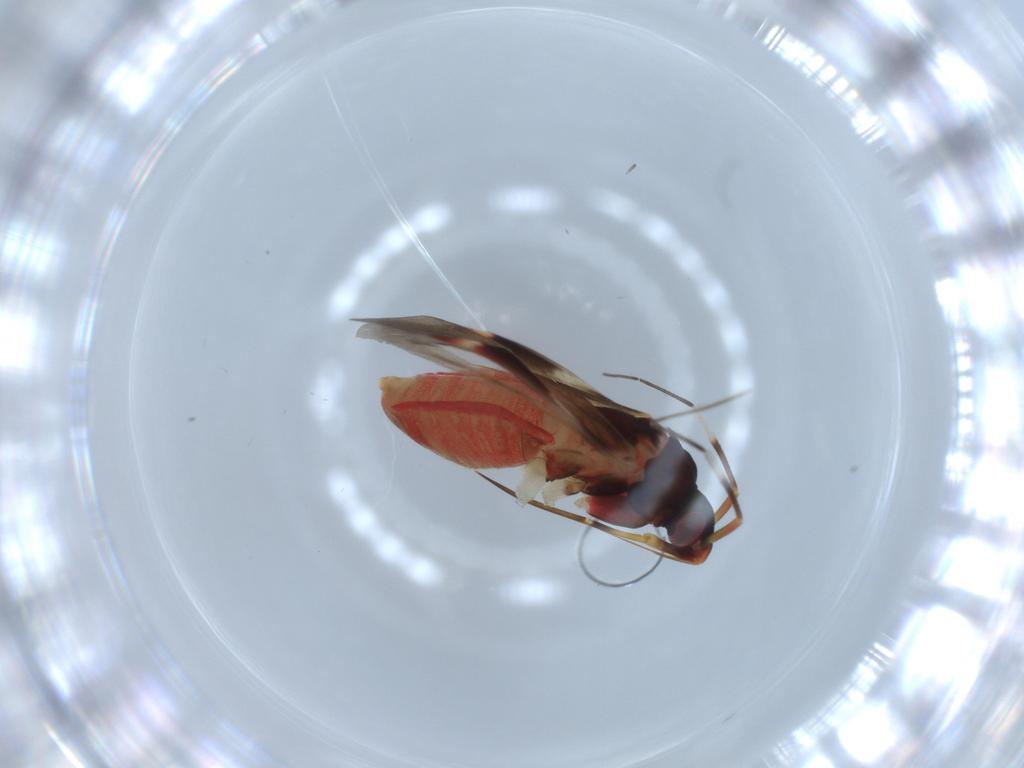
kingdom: Animalia
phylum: Arthropoda
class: Insecta
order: Hemiptera
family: Miridae
